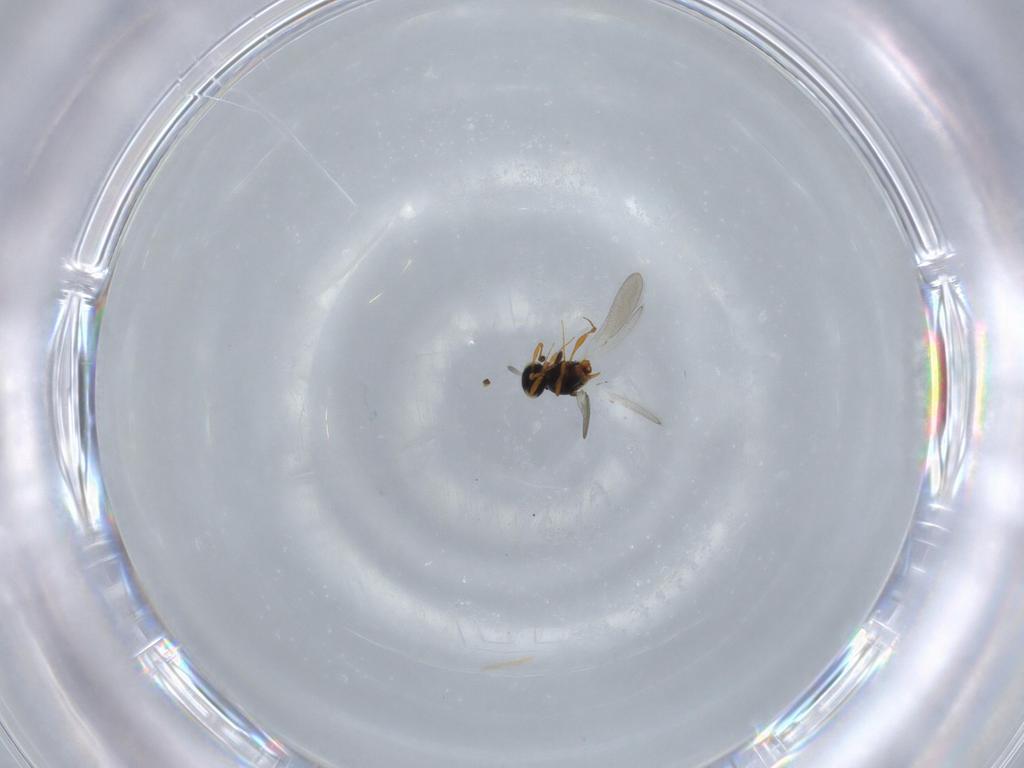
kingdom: Animalia
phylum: Arthropoda
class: Insecta
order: Hymenoptera
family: Platygastridae
